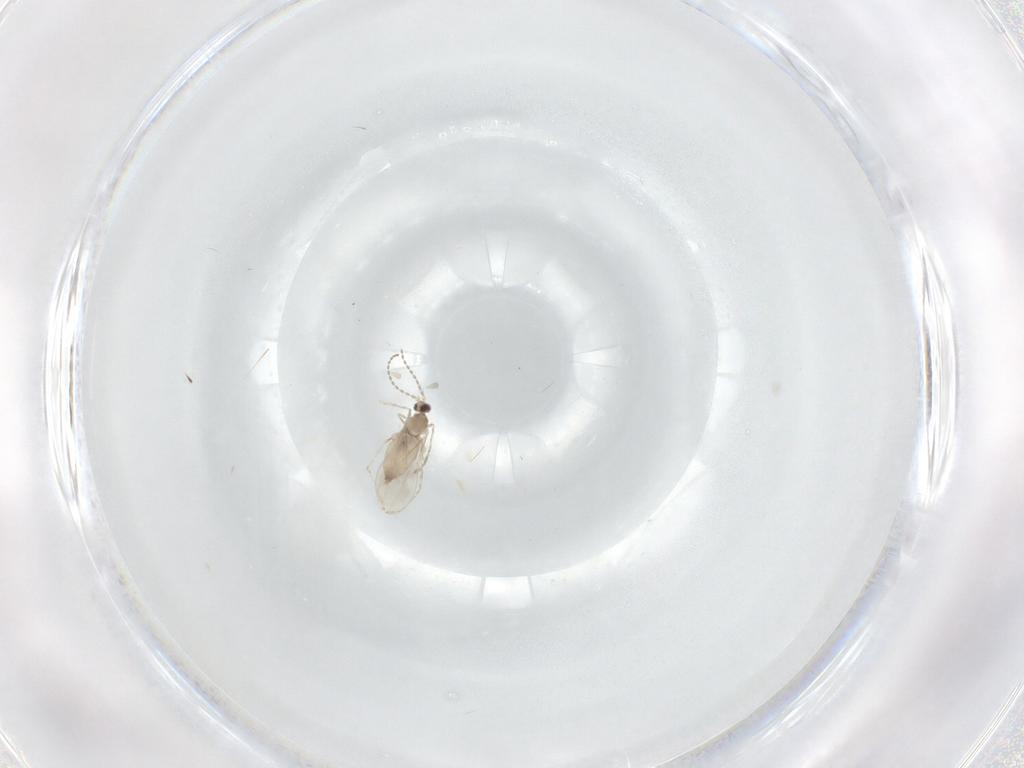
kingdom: Animalia
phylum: Arthropoda
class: Insecta
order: Diptera
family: Cecidomyiidae
